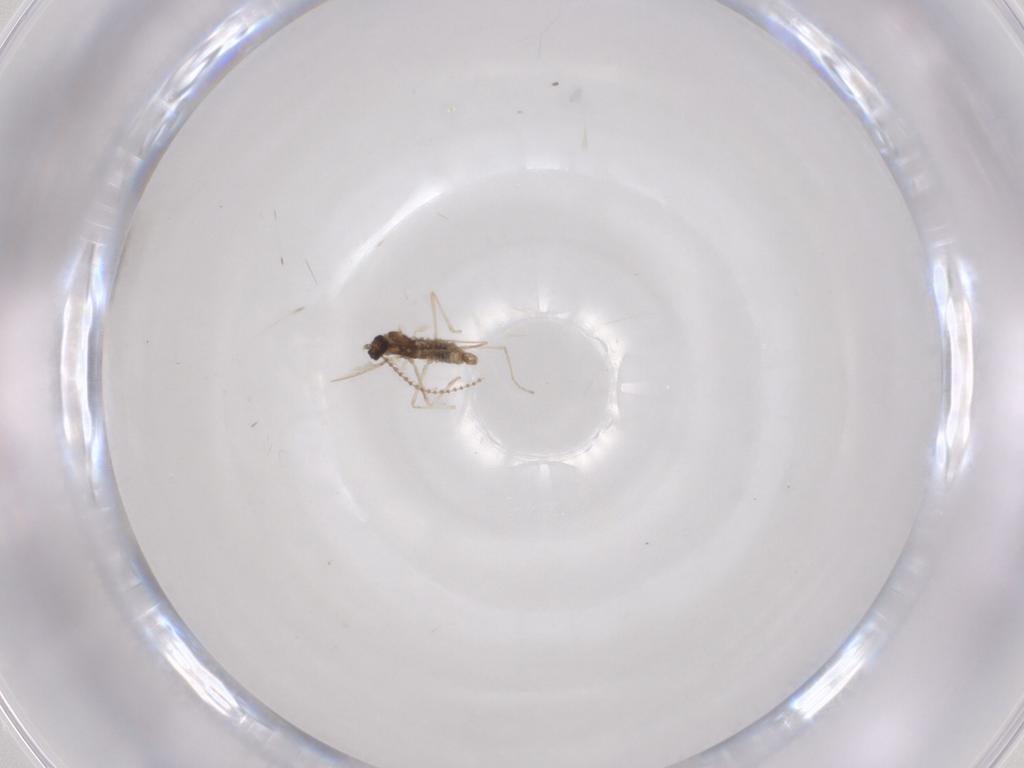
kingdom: Animalia
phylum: Arthropoda
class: Insecta
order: Diptera
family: Cecidomyiidae
